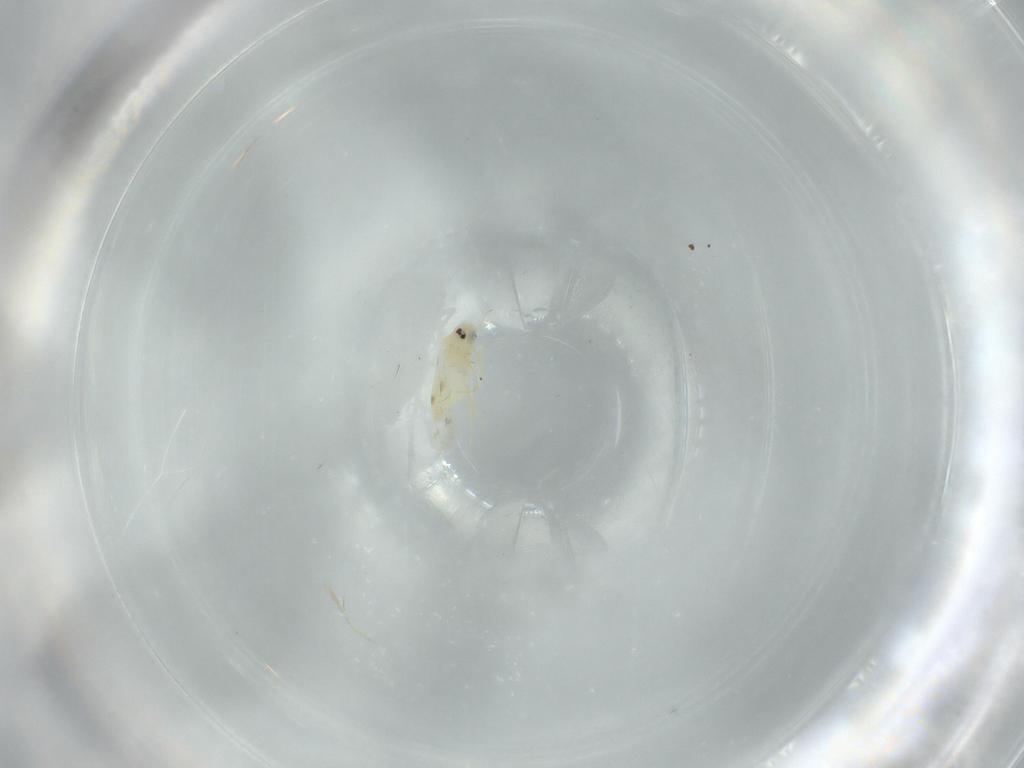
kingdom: Animalia
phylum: Arthropoda
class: Insecta
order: Hemiptera
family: Aleyrodidae
